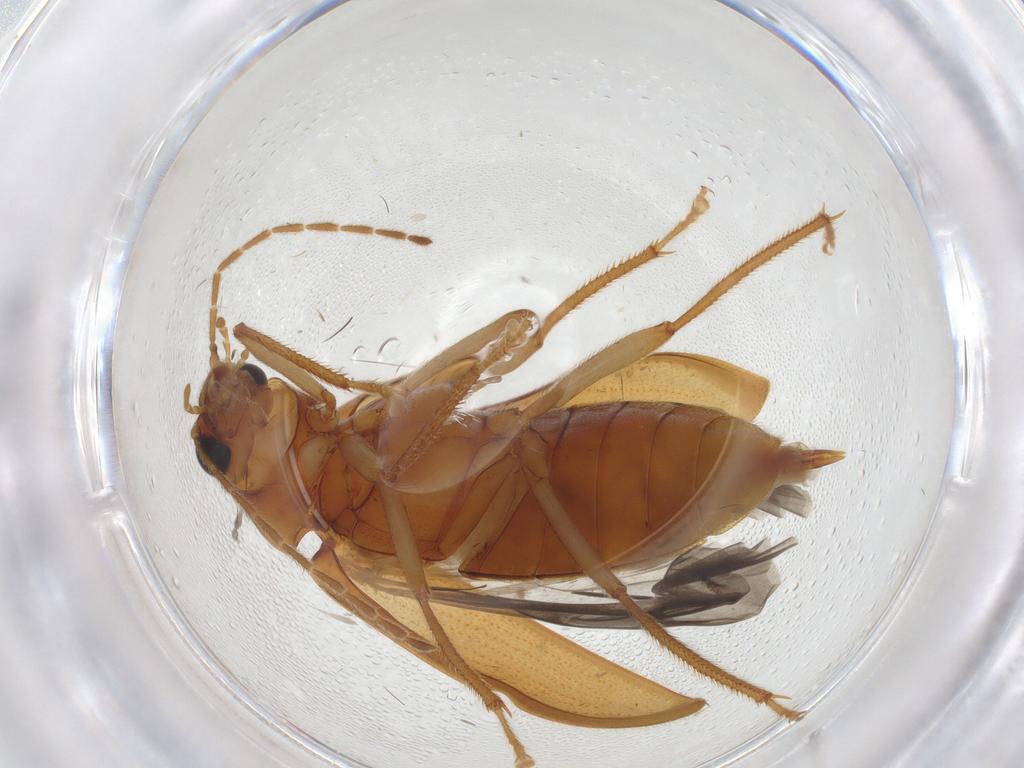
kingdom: Animalia
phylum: Arthropoda
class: Insecta
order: Coleoptera
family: Ptilodactylidae
